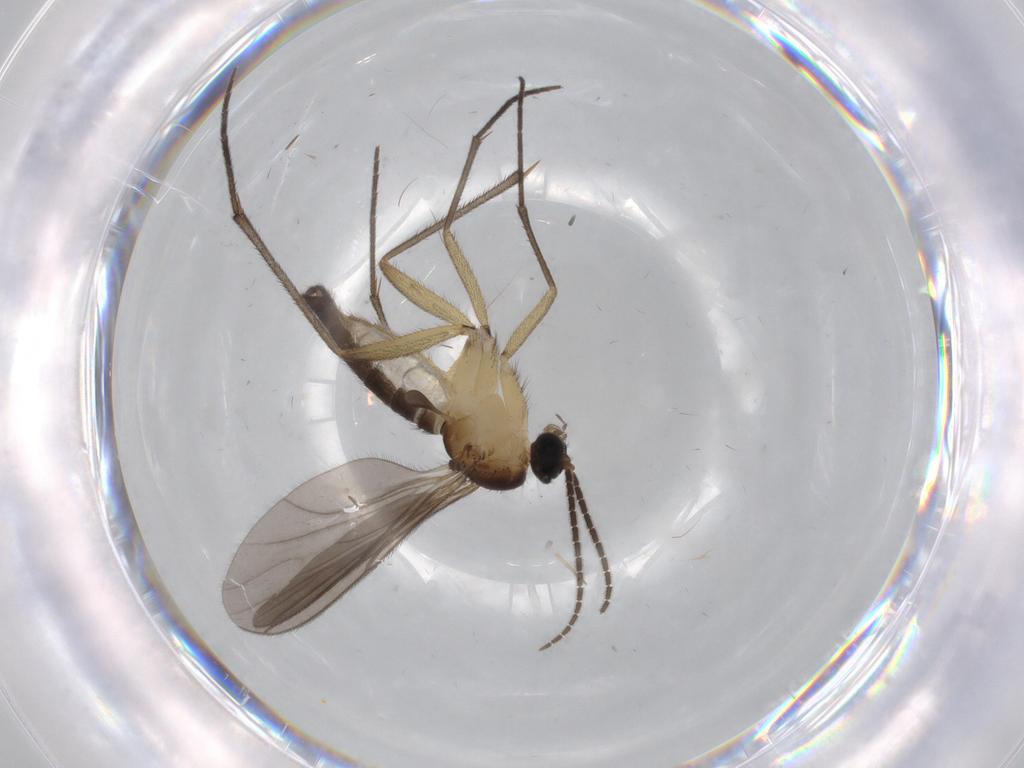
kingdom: Animalia
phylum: Arthropoda
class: Insecta
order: Diptera
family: Sciaridae
